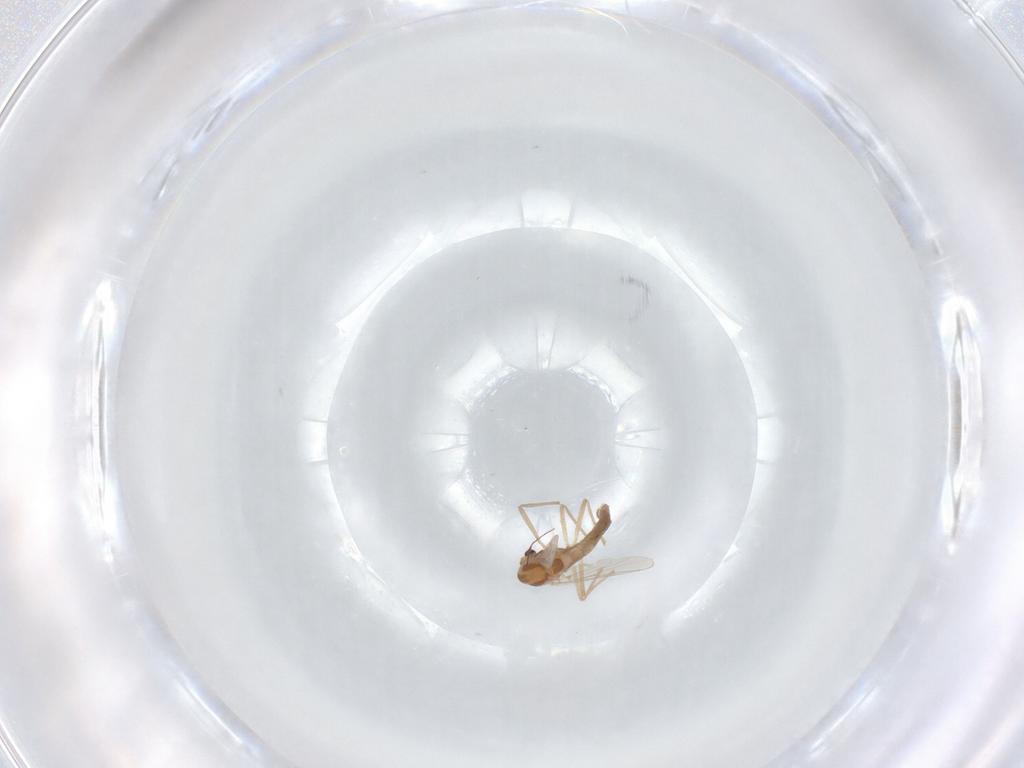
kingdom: Animalia
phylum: Arthropoda
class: Insecta
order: Diptera
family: Chironomidae
